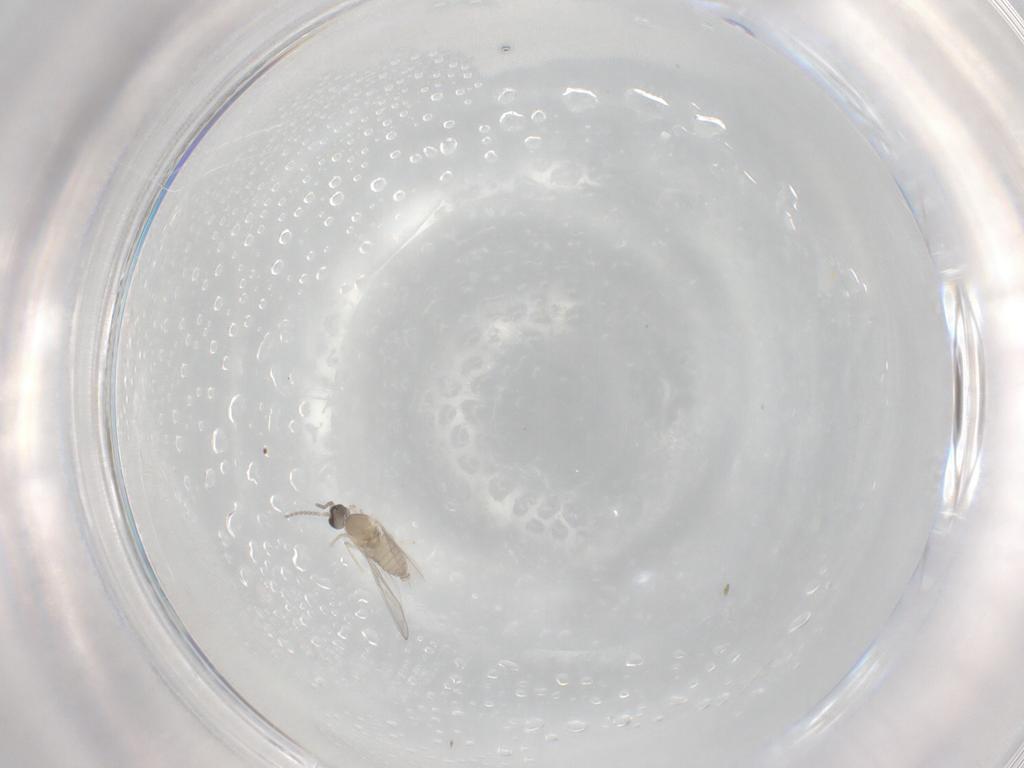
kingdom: Animalia
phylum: Arthropoda
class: Insecta
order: Diptera
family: Cecidomyiidae
